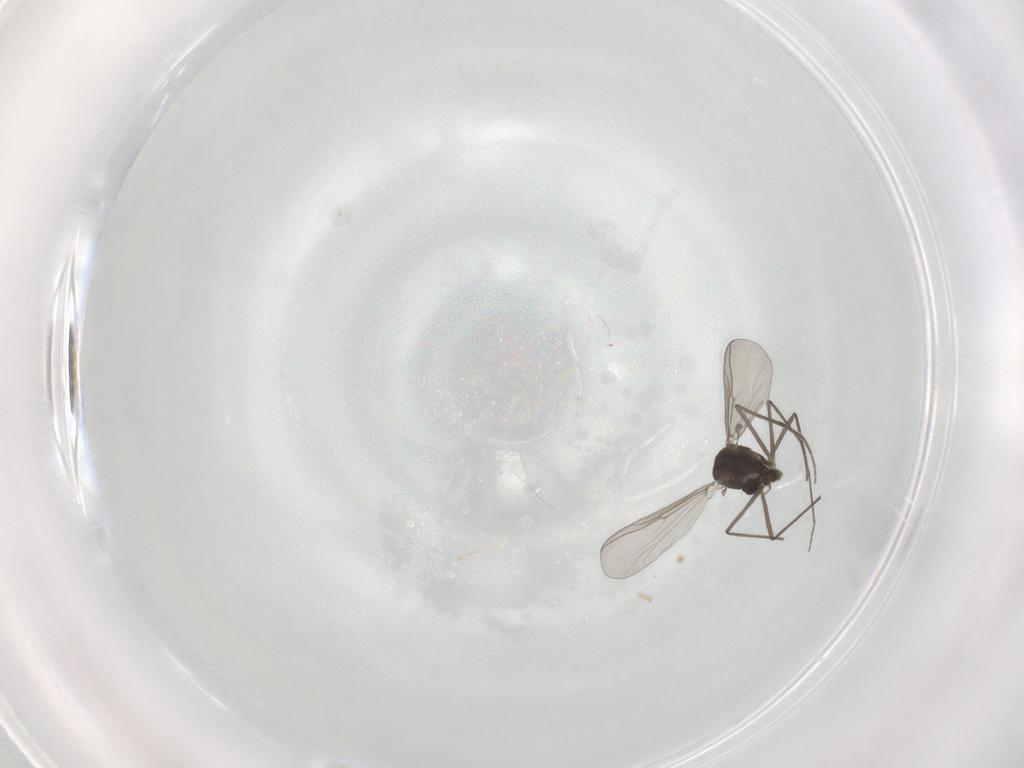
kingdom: Animalia
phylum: Arthropoda
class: Insecta
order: Diptera
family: Chironomidae
